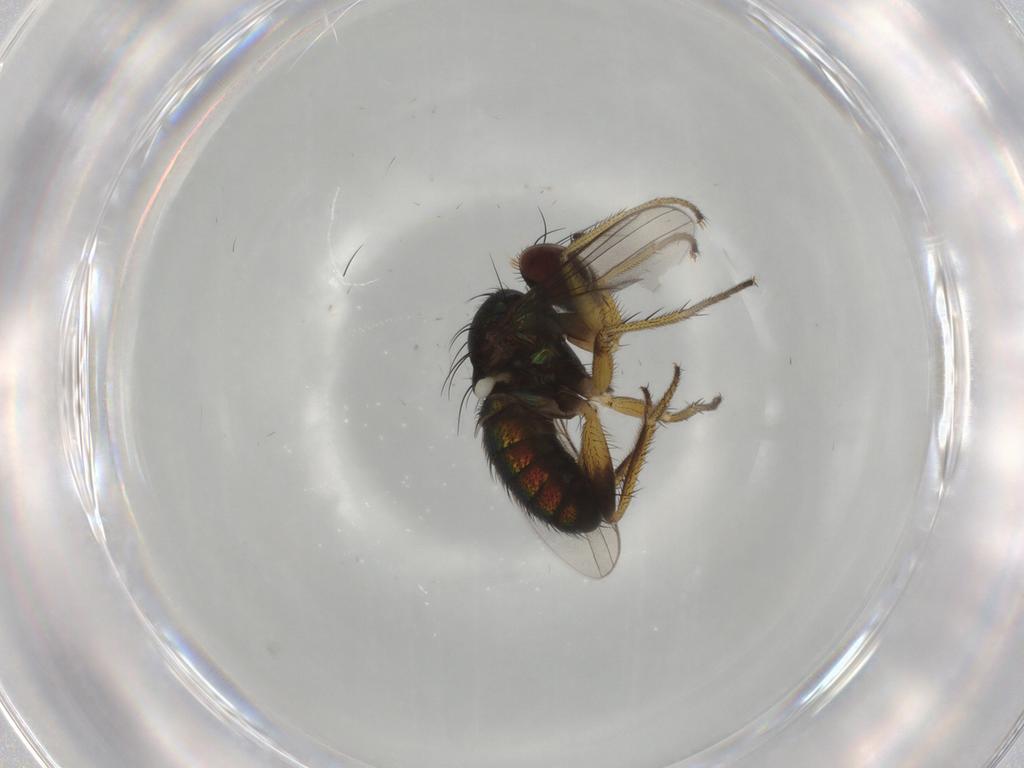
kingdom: Animalia
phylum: Arthropoda
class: Insecta
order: Diptera
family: Dolichopodidae
